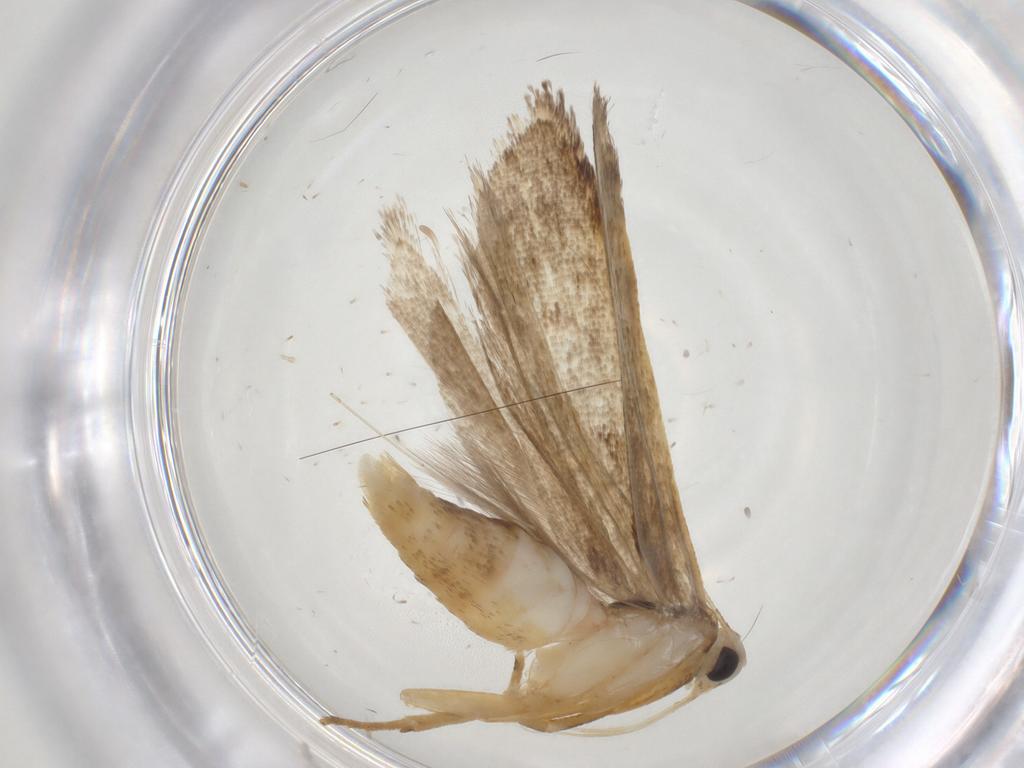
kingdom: Animalia
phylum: Arthropoda
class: Insecta
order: Lepidoptera
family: Gelechiidae
